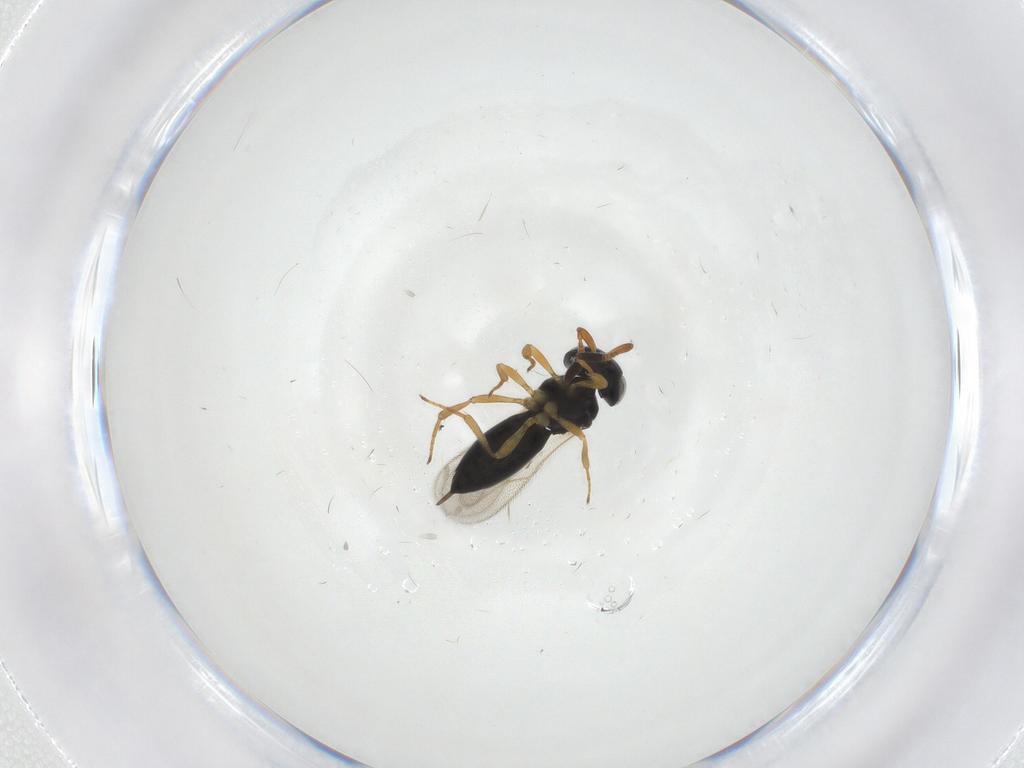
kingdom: Animalia
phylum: Arthropoda
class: Insecta
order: Hymenoptera
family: Scelionidae
